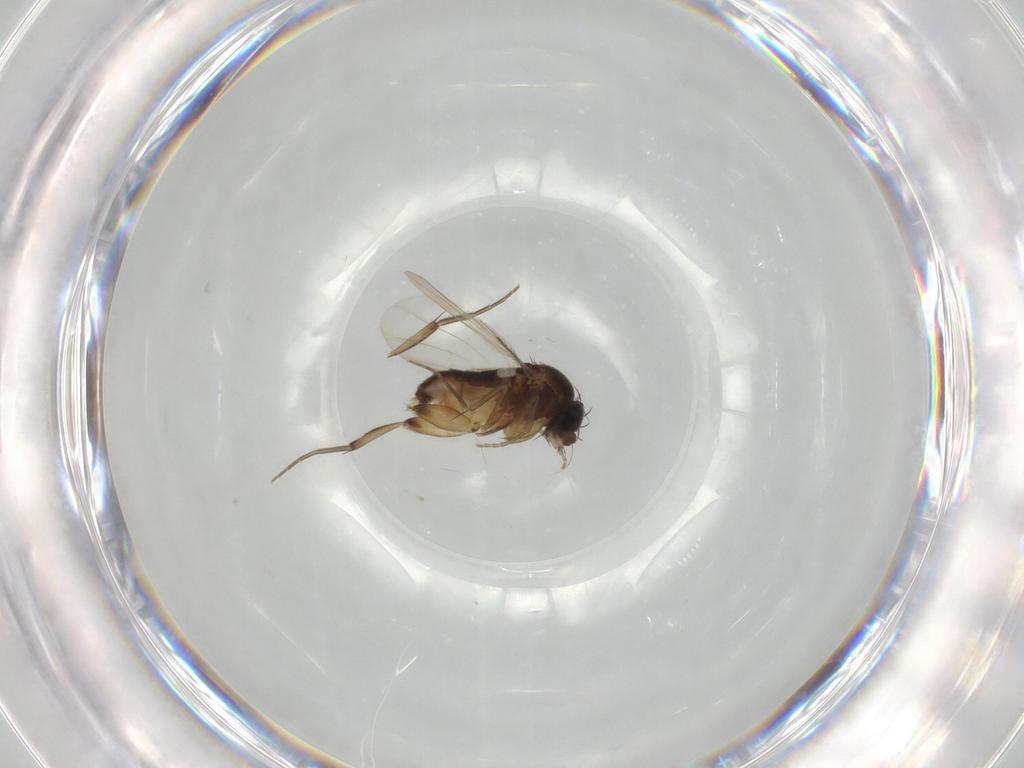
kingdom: Animalia
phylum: Arthropoda
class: Insecta
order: Diptera
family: Phoridae
